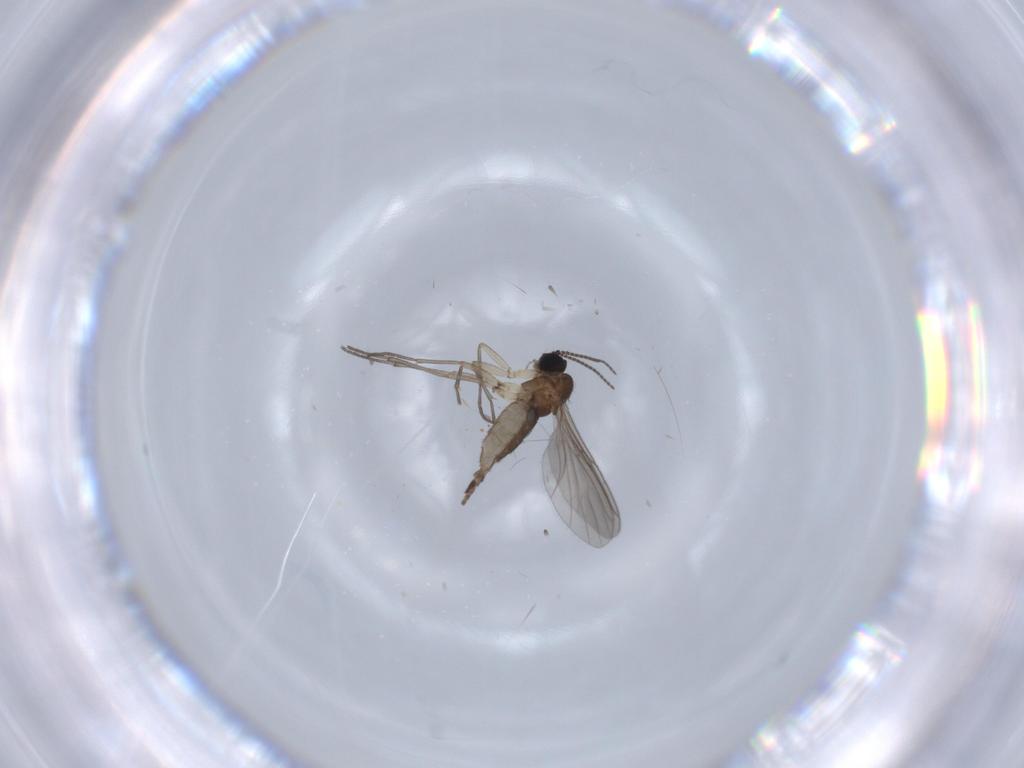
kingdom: Animalia
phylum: Arthropoda
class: Insecta
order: Diptera
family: Sciaridae
